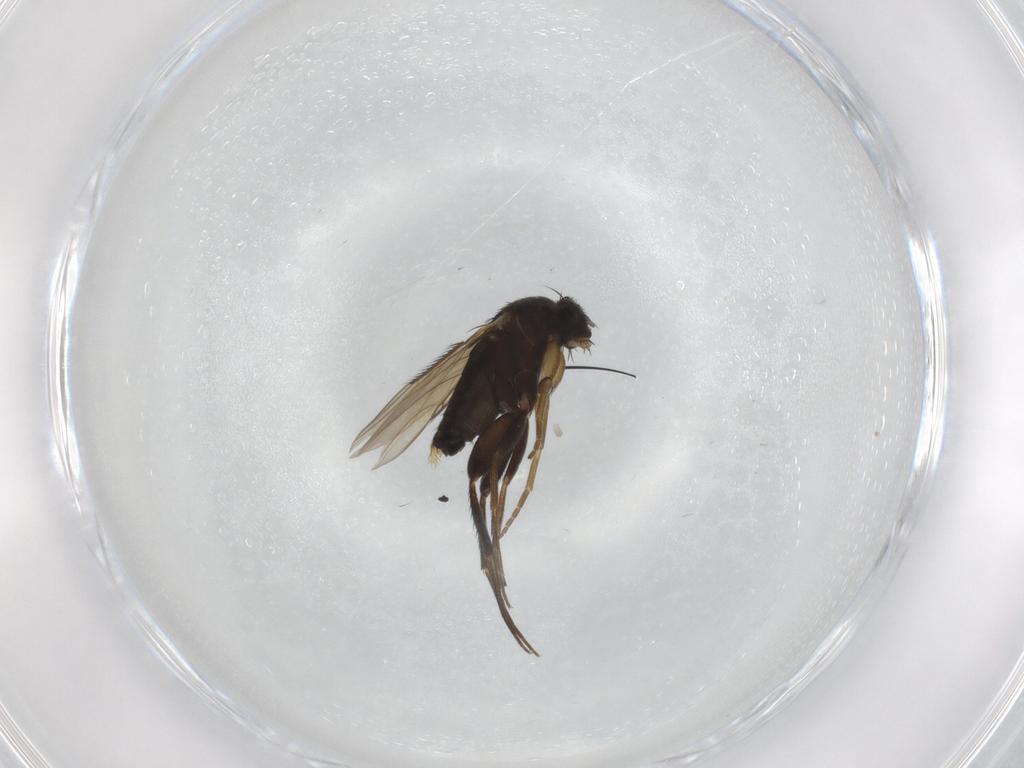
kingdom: Animalia
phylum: Arthropoda
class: Insecta
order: Diptera
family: Phoridae
